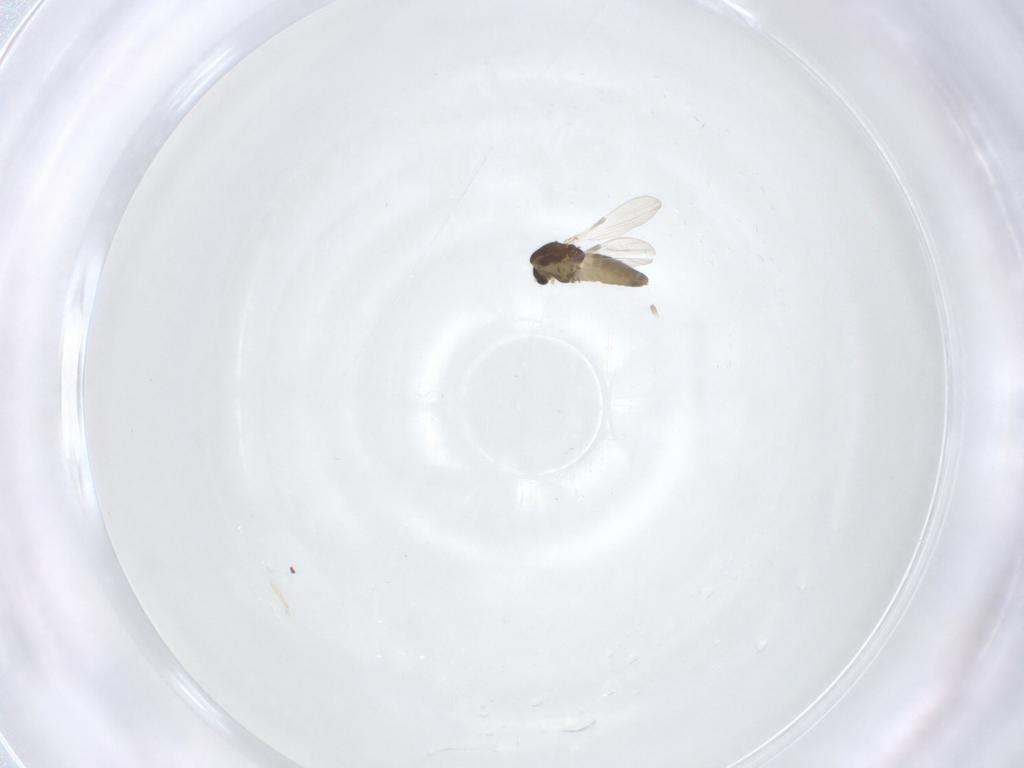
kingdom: Animalia
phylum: Arthropoda
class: Insecta
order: Diptera
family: Chironomidae
